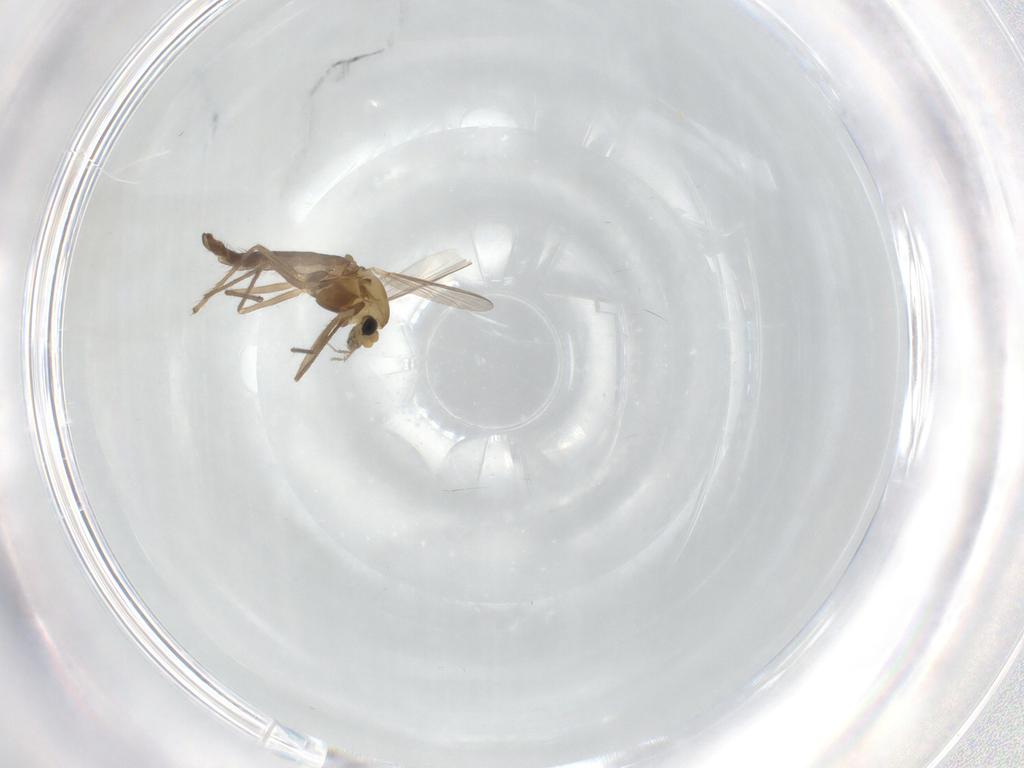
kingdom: Animalia
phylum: Arthropoda
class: Insecta
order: Diptera
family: Chironomidae
